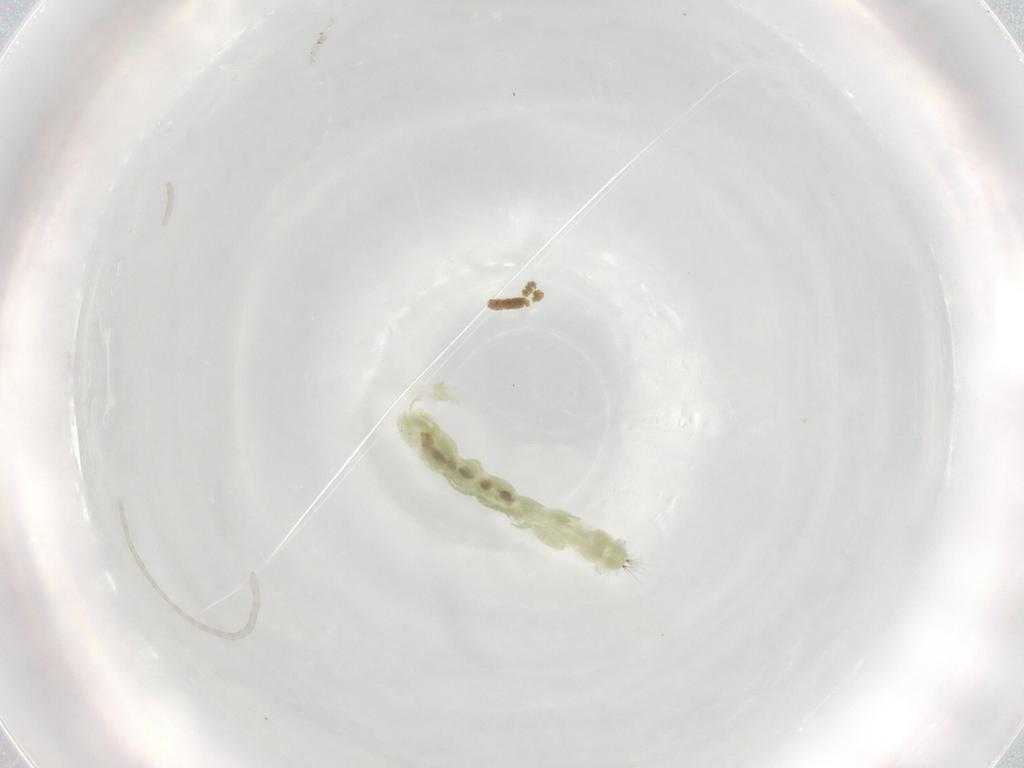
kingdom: Animalia
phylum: Arthropoda
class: Insecta
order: Diptera
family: Chironomidae
